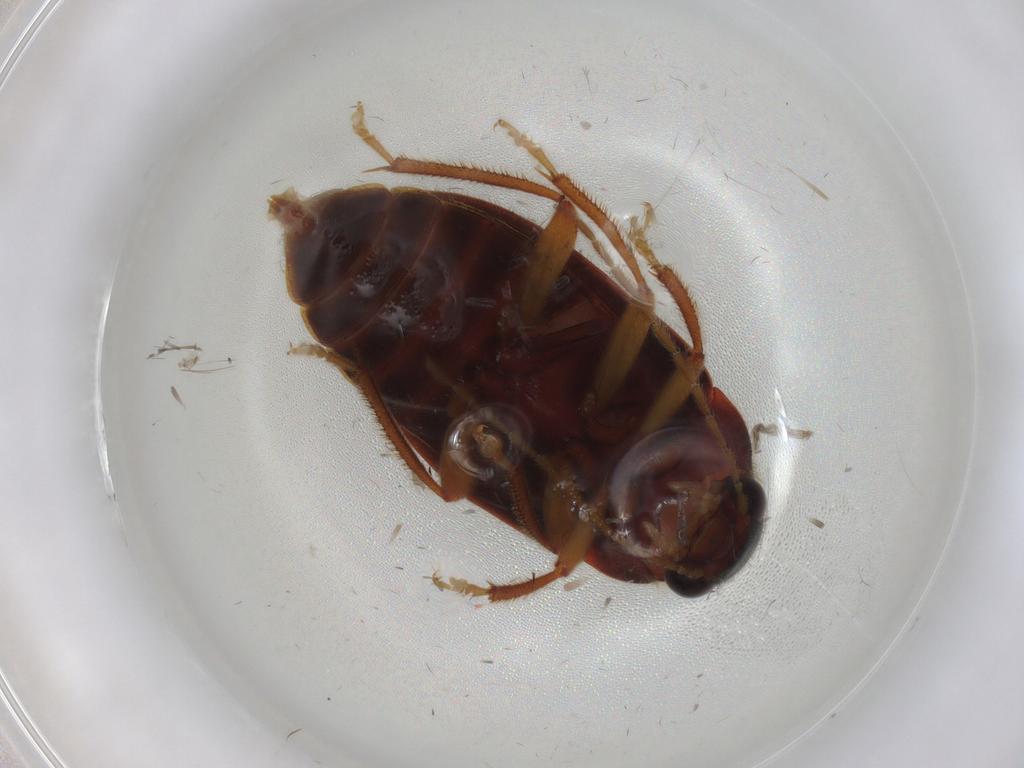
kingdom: Animalia
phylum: Arthropoda
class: Insecta
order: Coleoptera
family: Ptilodactylidae
